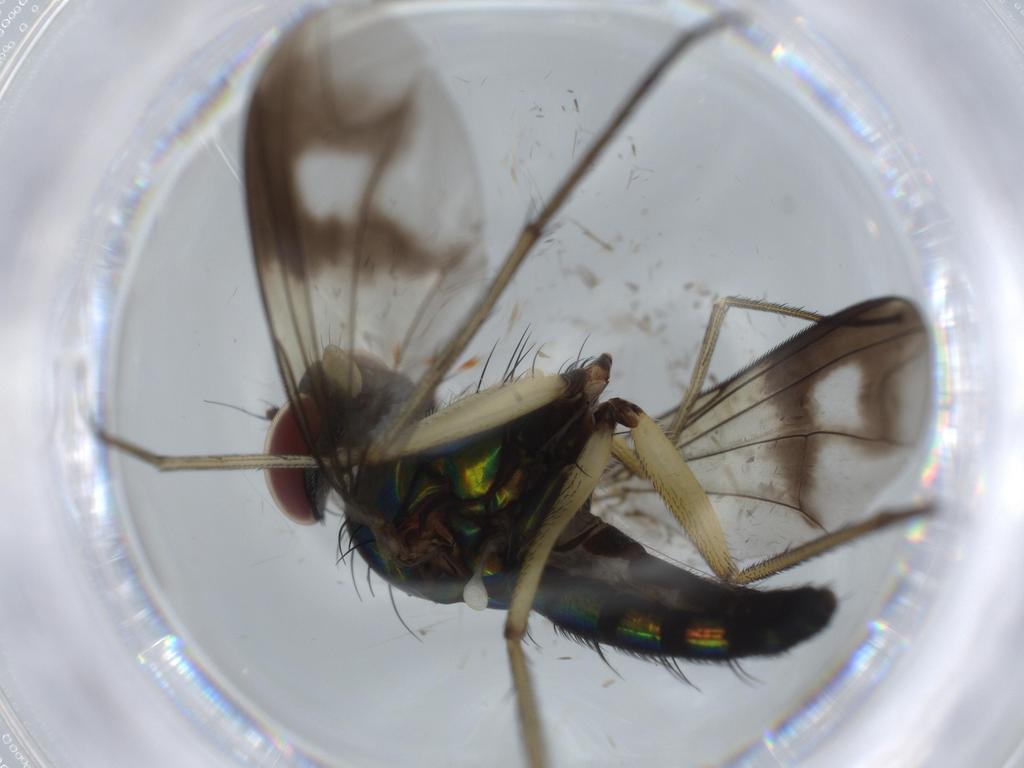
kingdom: Animalia
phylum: Arthropoda
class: Insecta
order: Diptera
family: Dolichopodidae
